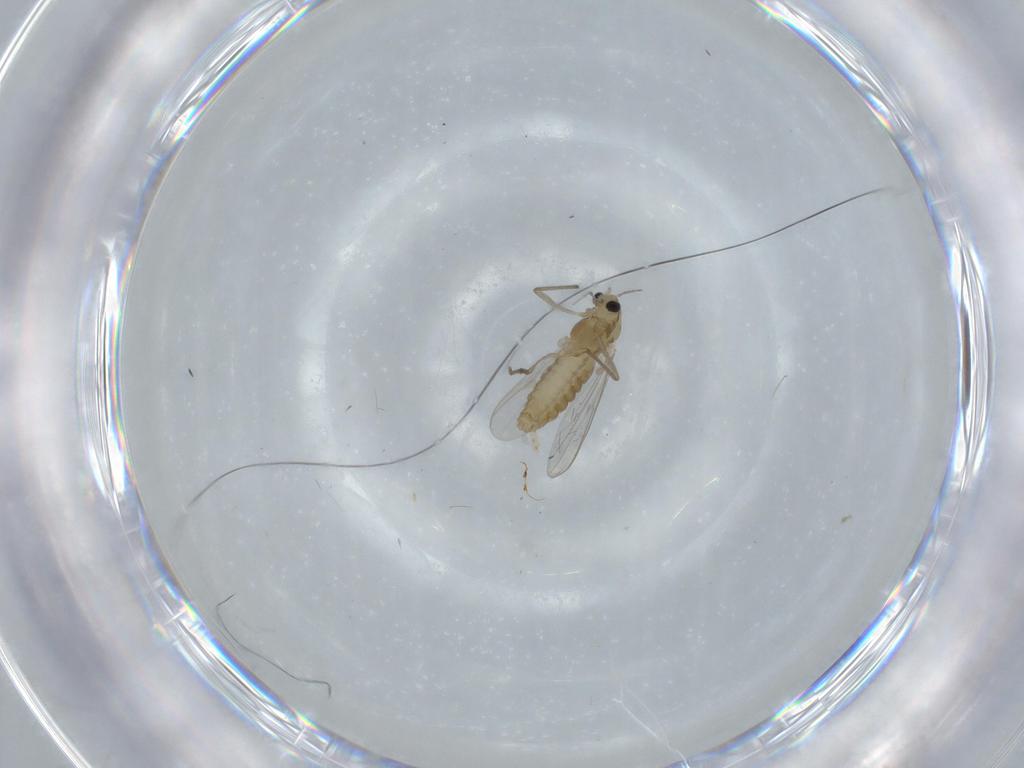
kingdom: Animalia
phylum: Arthropoda
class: Insecta
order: Diptera
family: Chironomidae
